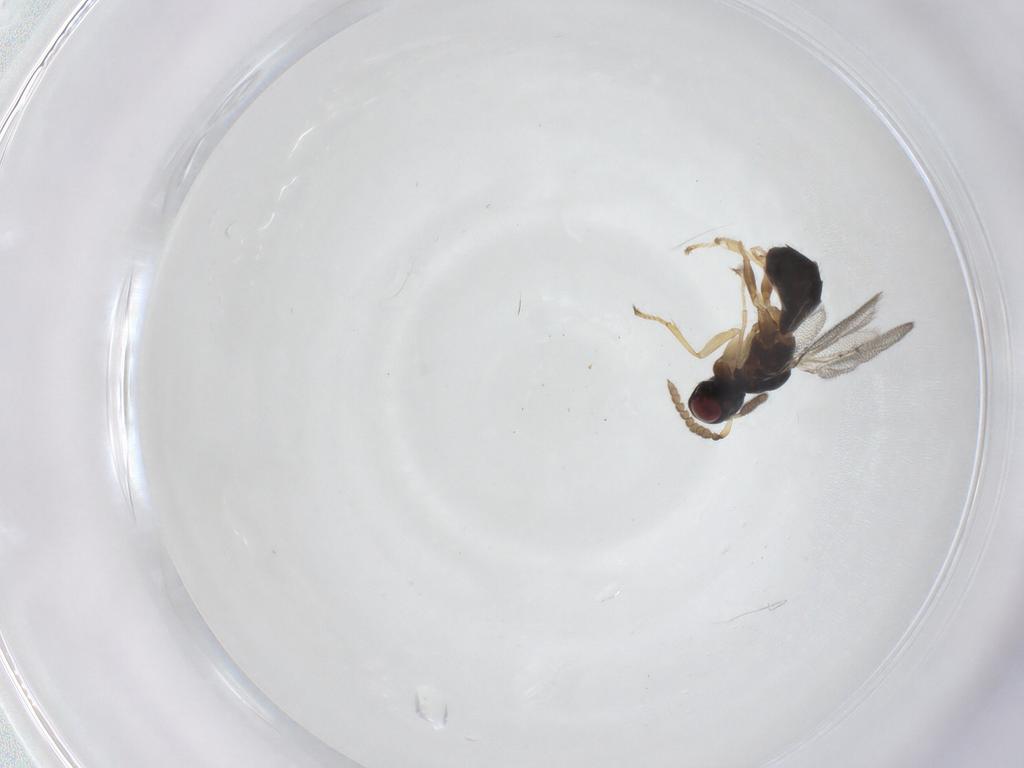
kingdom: Animalia
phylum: Arthropoda
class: Insecta
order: Hymenoptera
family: Agaonidae
